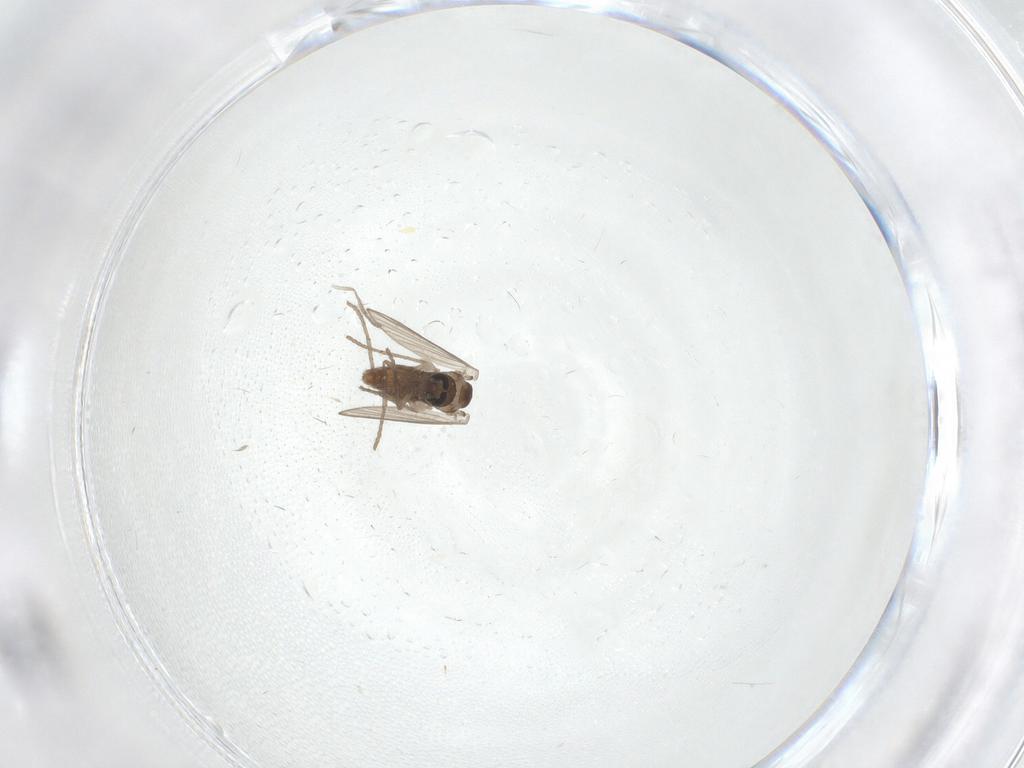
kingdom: Animalia
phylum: Arthropoda
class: Insecta
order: Diptera
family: Psychodidae
